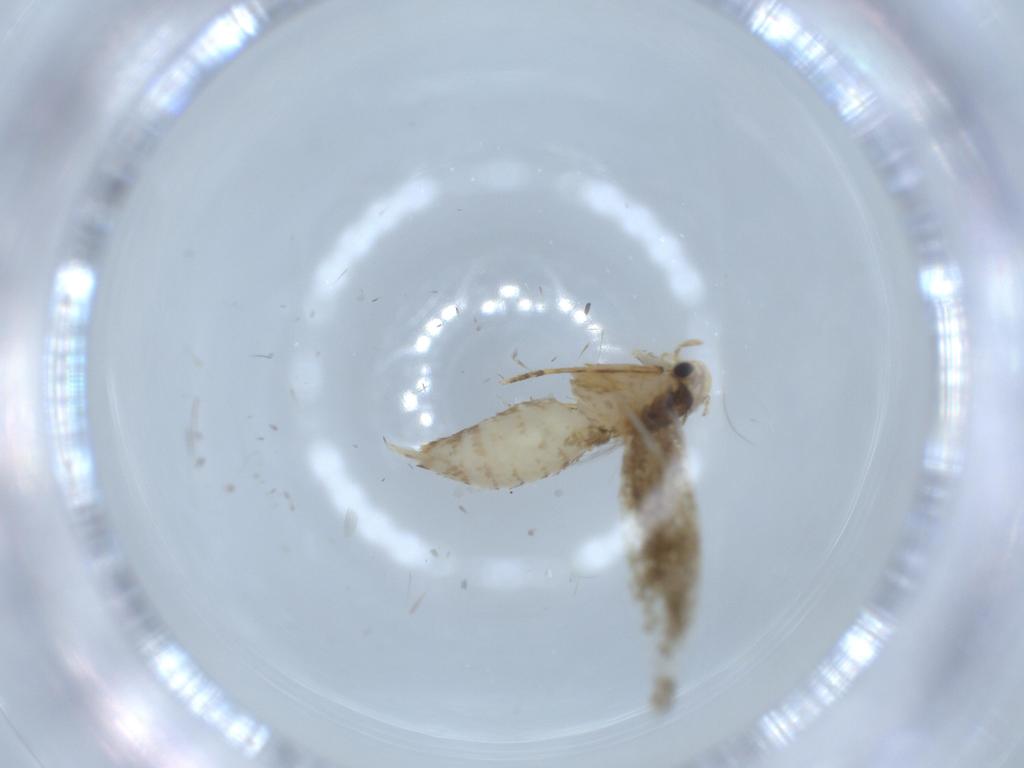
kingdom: Animalia
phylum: Arthropoda
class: Insecta
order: Lepidoptera
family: Tineidae
